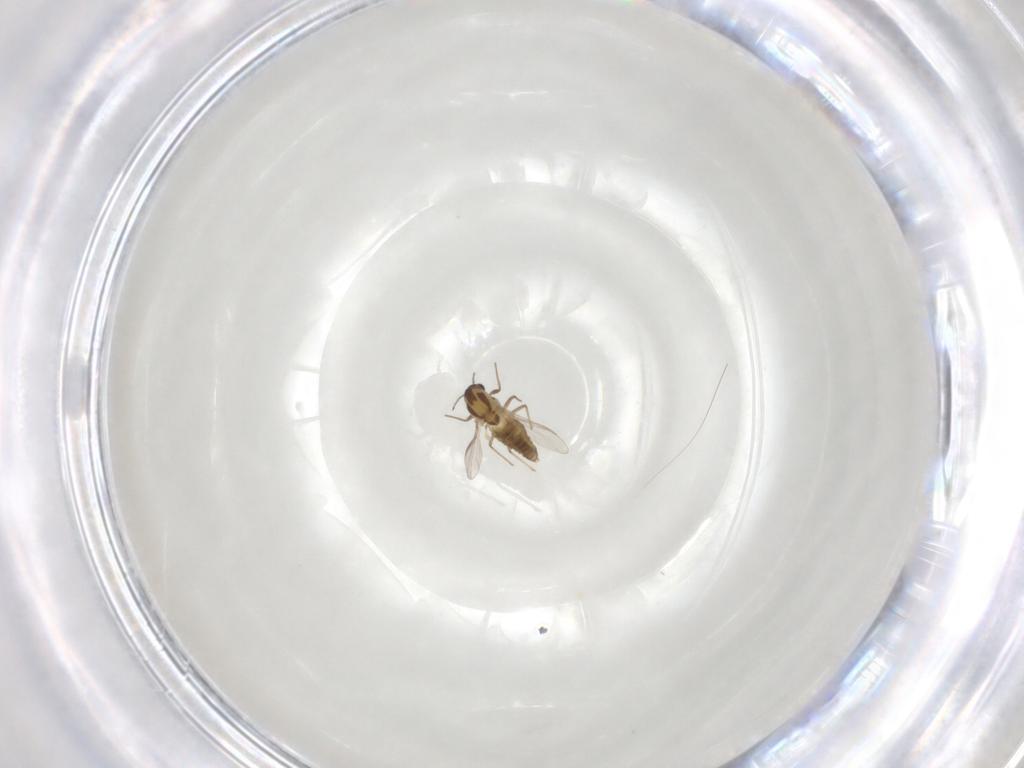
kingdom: Animalia
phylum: Arthropoda
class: Insecta
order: Diptera
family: Chironomidae
